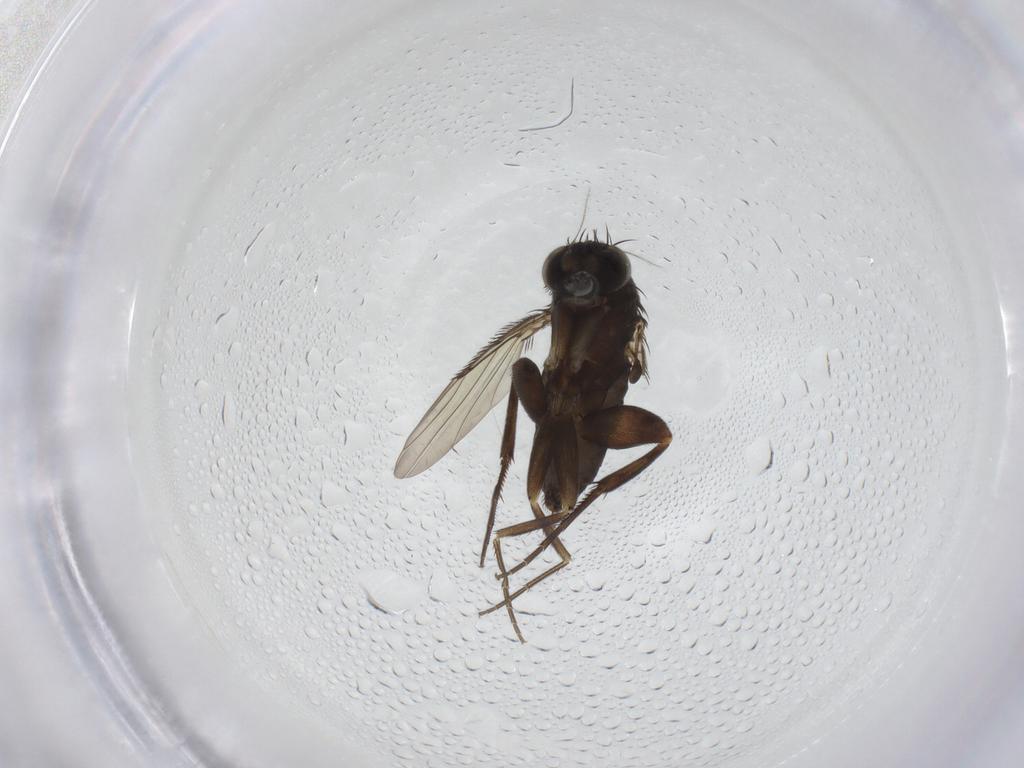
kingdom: Animalia
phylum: Arthropoda
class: Insecta
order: Diptera
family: Phoridae
